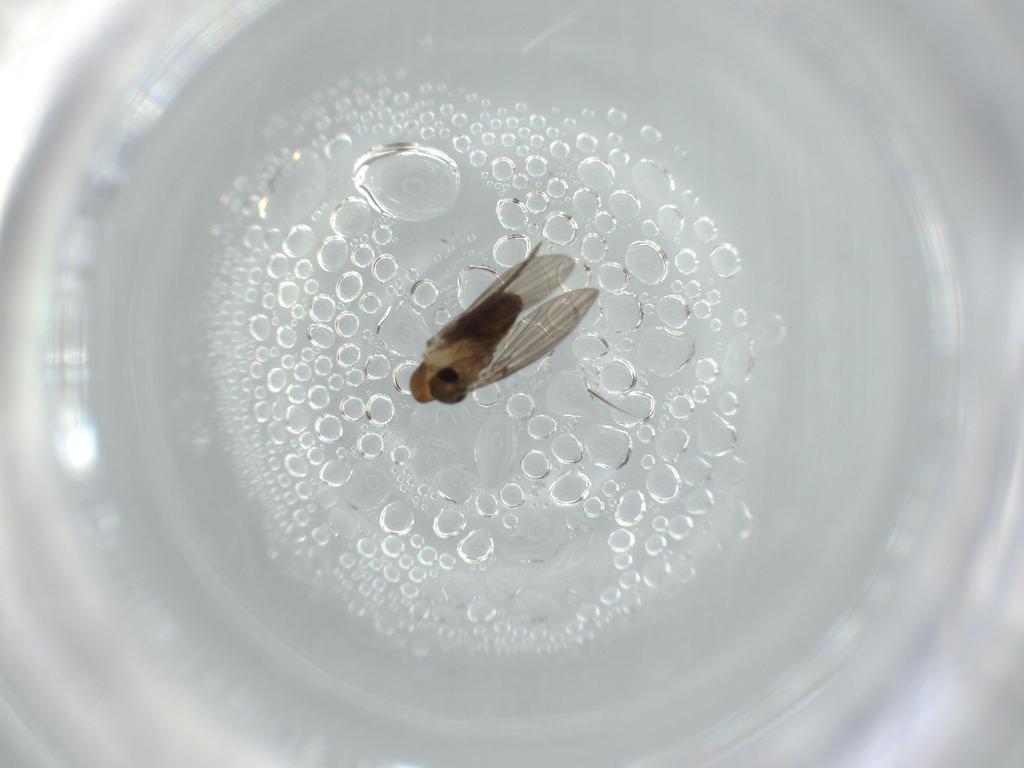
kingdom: Animalia
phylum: Arthropoda
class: Insecta
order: Diptera
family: Psychodidae
